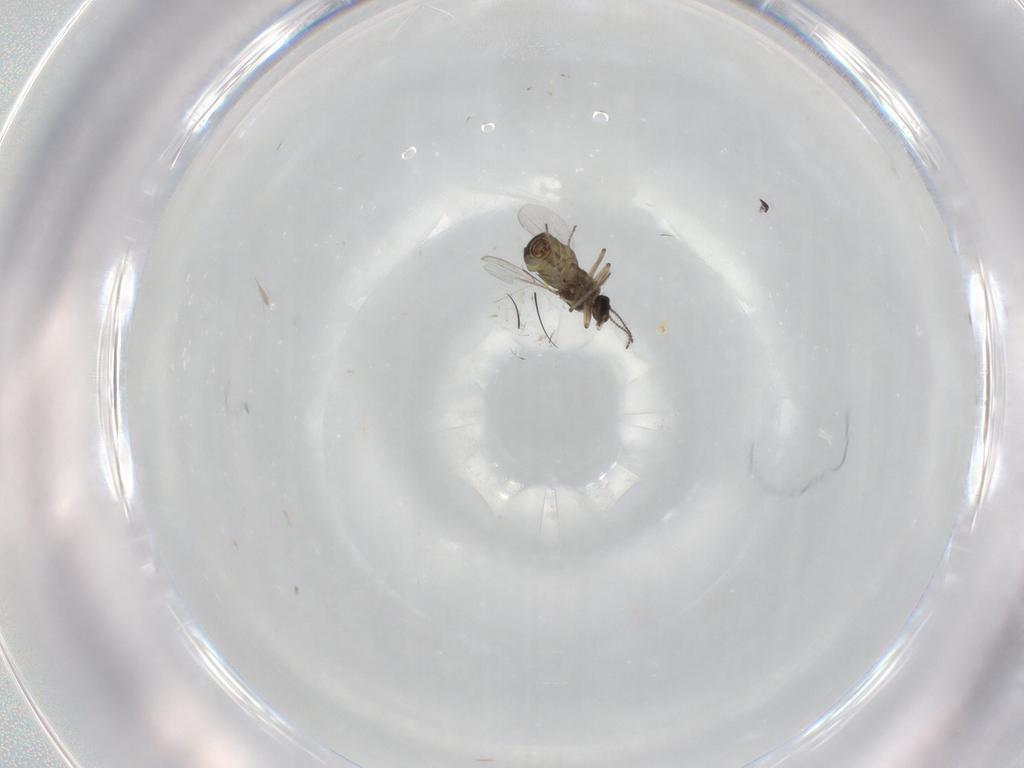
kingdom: Animalia
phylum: Arthropoda
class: Insecta
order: Diptera
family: Ceratopogonidae
